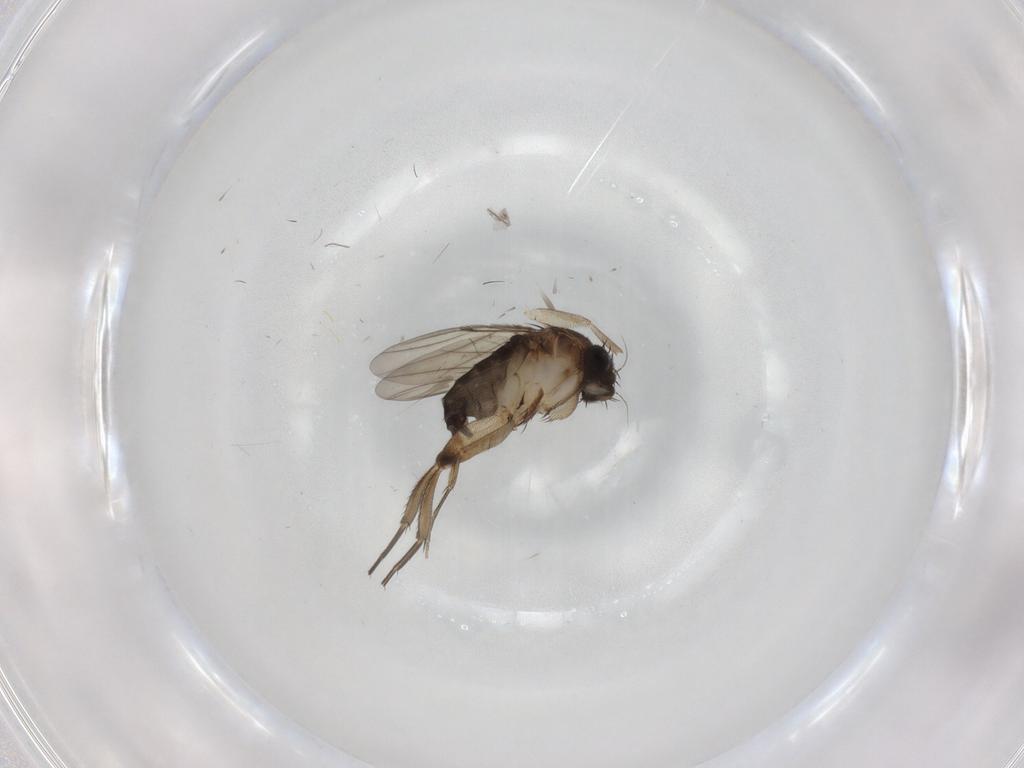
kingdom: Animalia
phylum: Arthropoda
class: Insecta
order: Diptera
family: Phoridae
